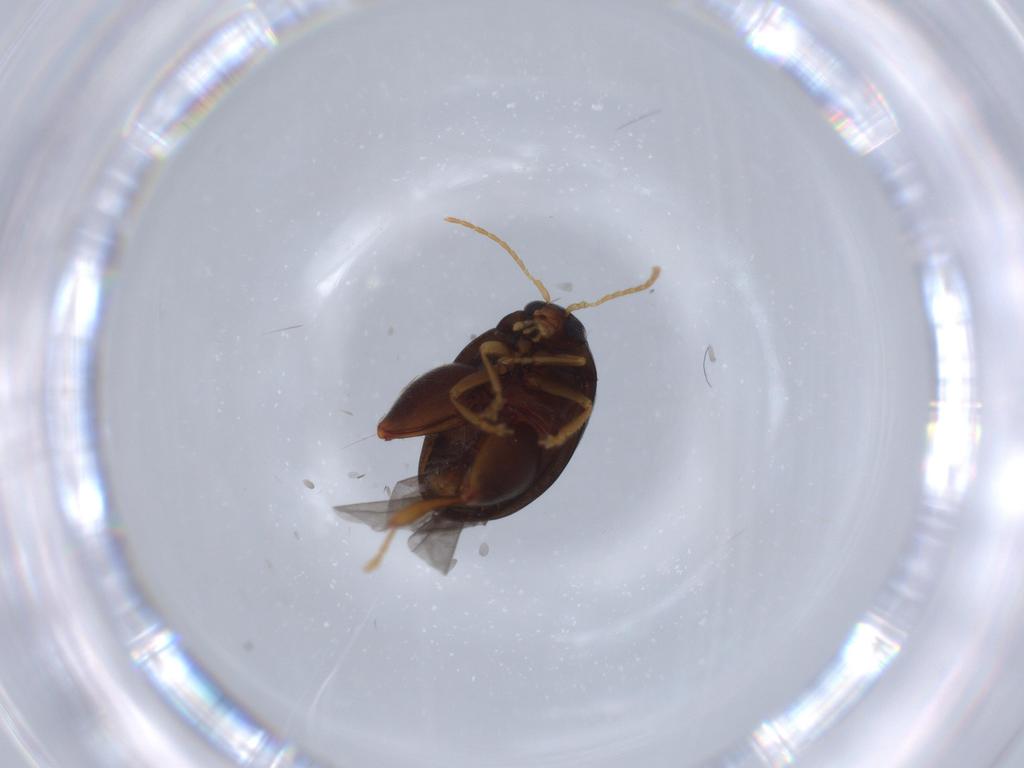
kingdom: Animalia
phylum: Arthropoda
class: Insecta
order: Coleoptera
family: Chrysomelidae
